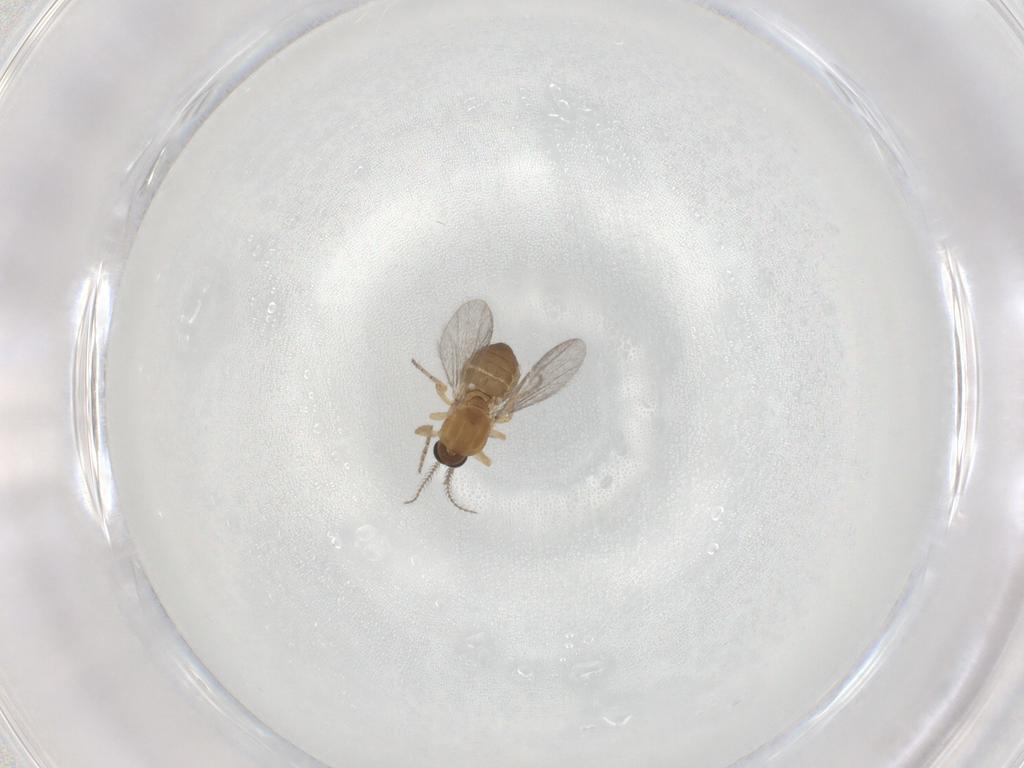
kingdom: Animalia
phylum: Arthropoda
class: Insecta
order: Diptera
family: Ceratopogonidae
